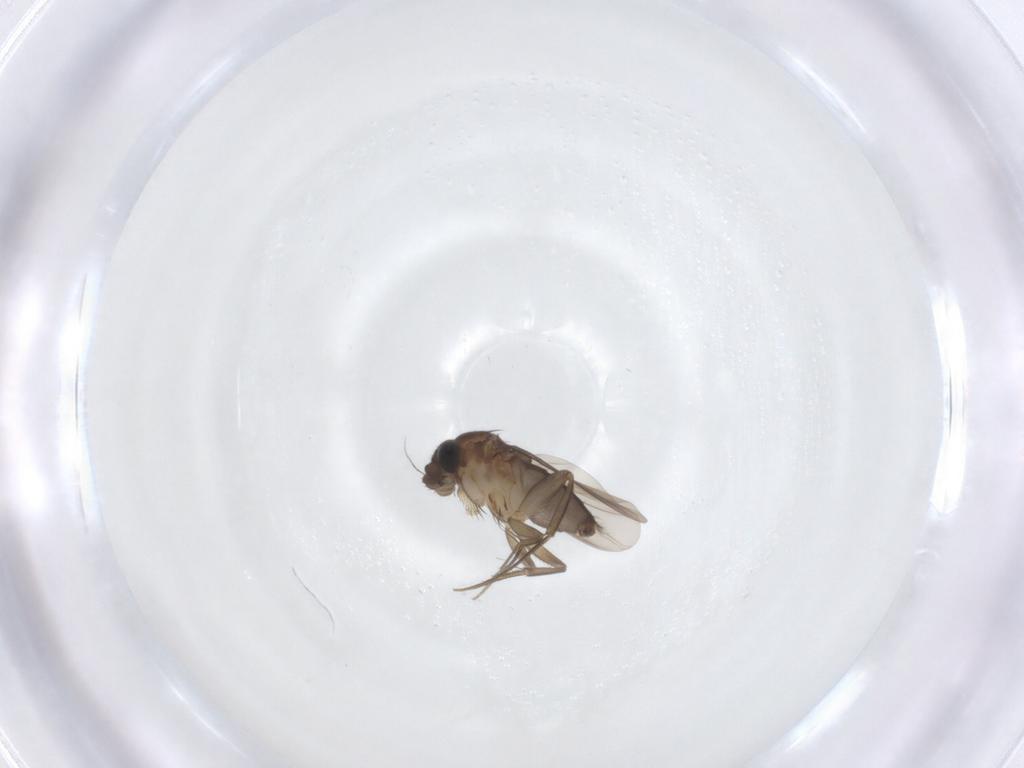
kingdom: Animalia
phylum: Arthropoda
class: Insecta
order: Diptera
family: Phoridae
